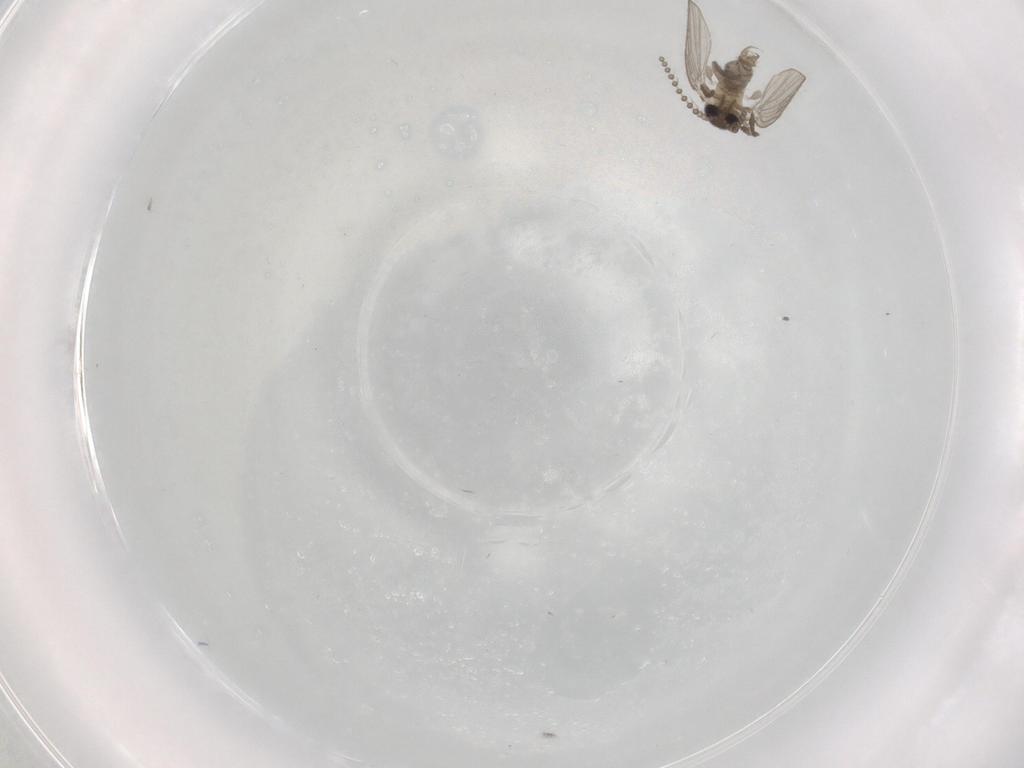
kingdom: Animalia
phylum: Arthropoda
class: Insecta
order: Diptera
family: Psychodidae
